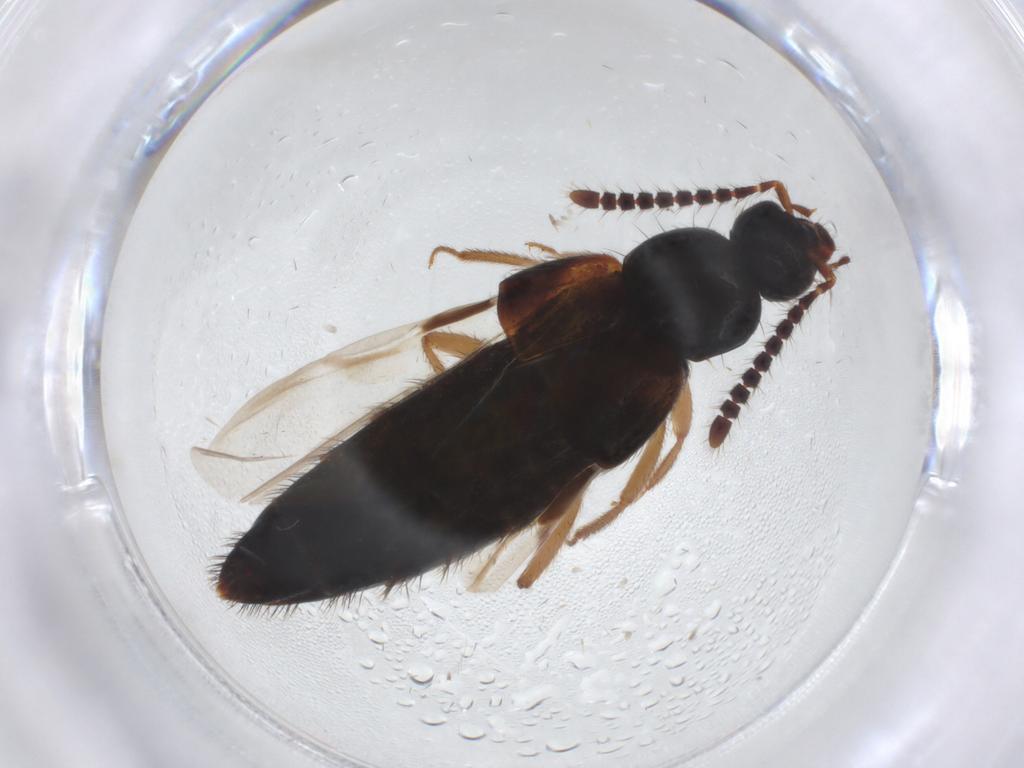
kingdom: Animalia
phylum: Arthropoda
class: Insecta
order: Coleoptera
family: Staphylinidae
